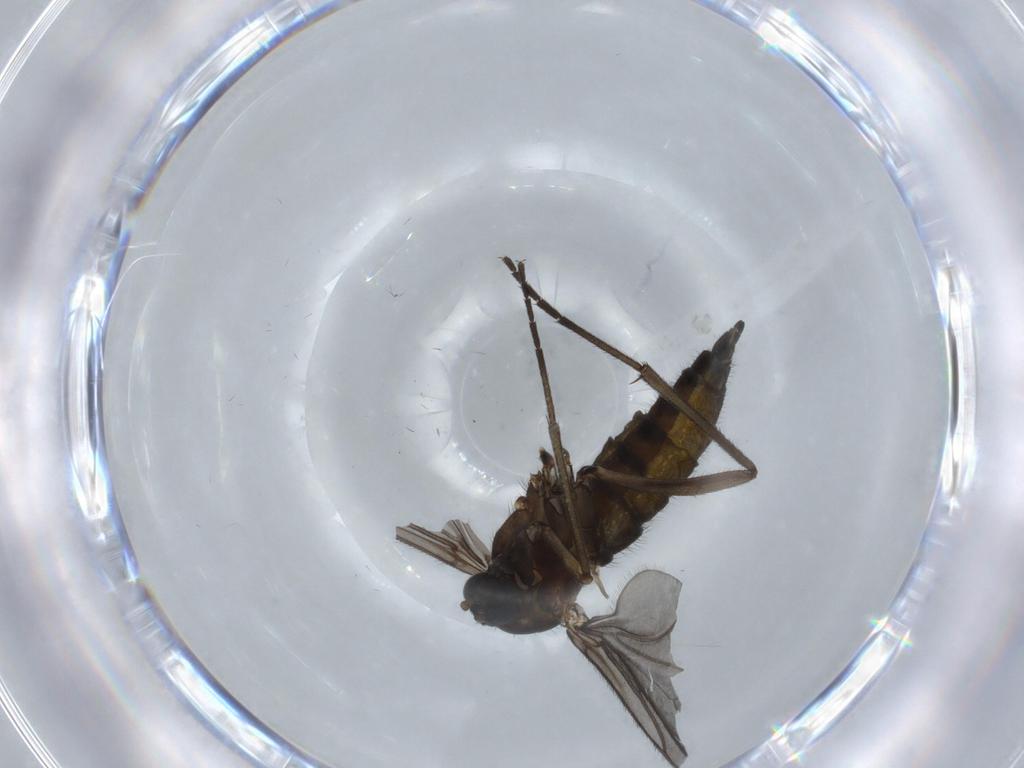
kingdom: Animalia
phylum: Arthropoda
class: Insecta
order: Diptera
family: Sciaridae
